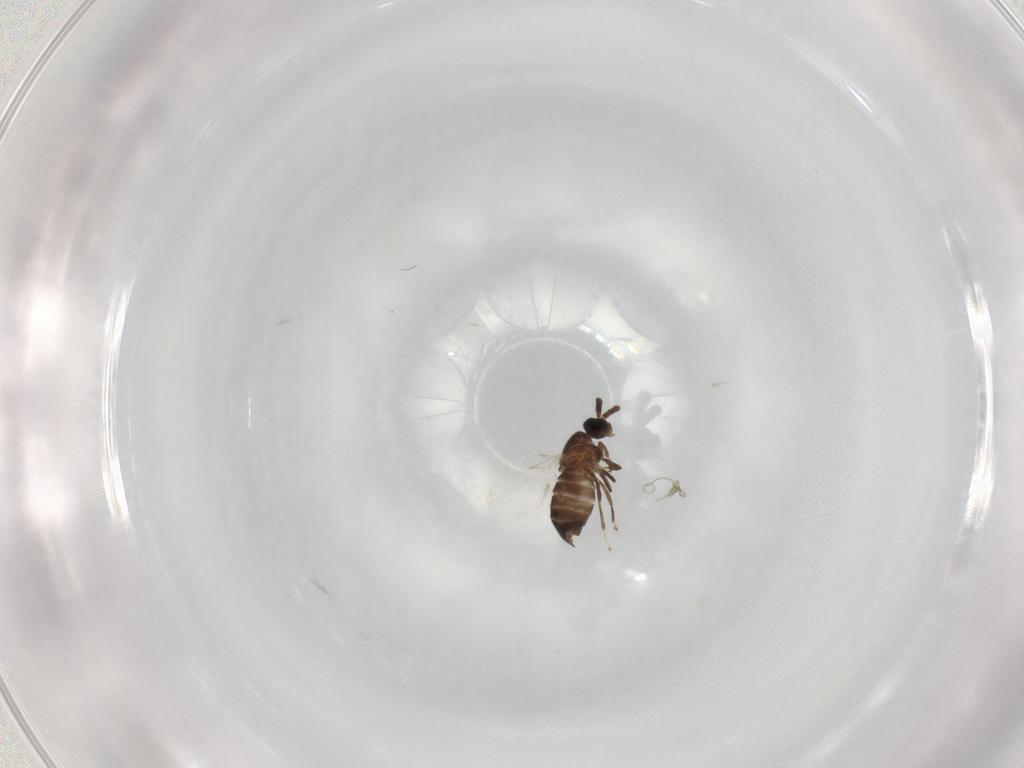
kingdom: Animalia
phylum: Arthropoda
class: Insecta
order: Diptera
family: Scatopsidae
